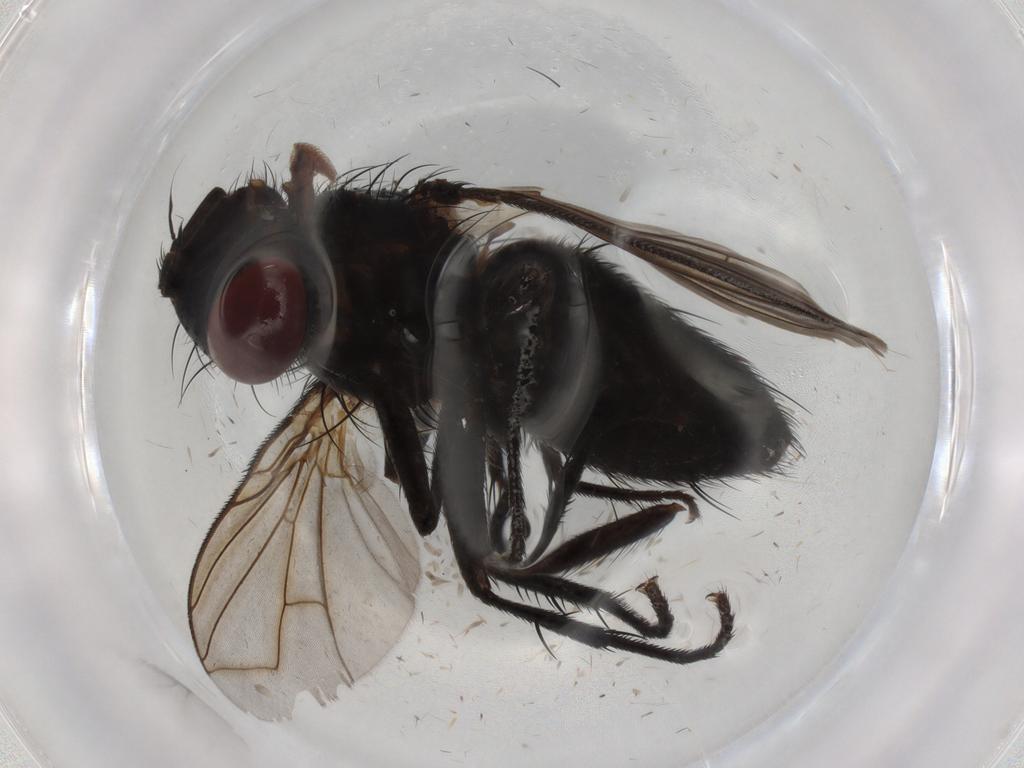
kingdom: Animalia
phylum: Arthropoda
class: Insecta
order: Diptera
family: Tachinidae
